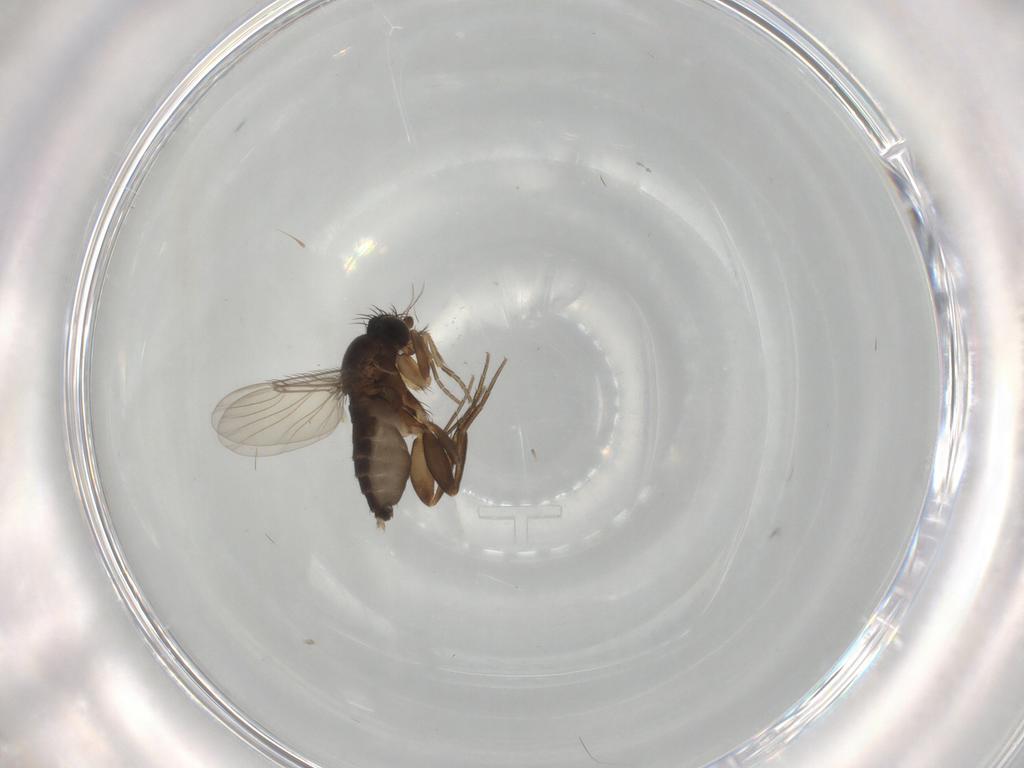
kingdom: Animalia
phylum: Arthropoda
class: Insecta
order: Diptera
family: Phoridae
